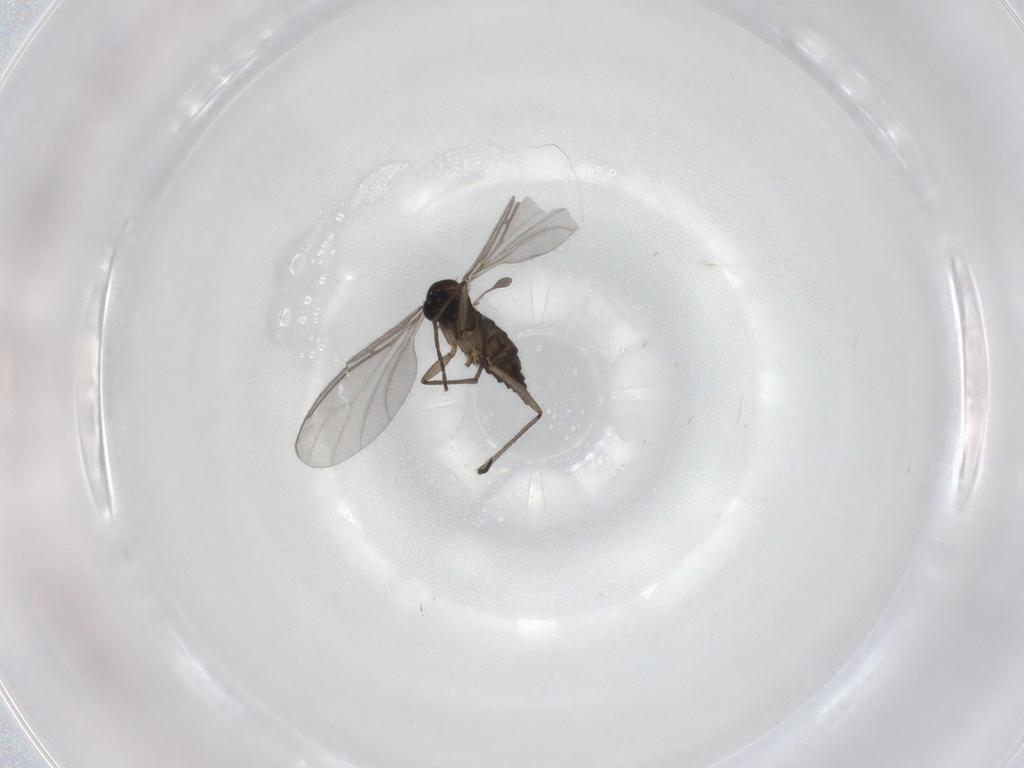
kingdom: Animalia
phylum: Arthropoda
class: Insecta
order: Diptera
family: Sciaridae
